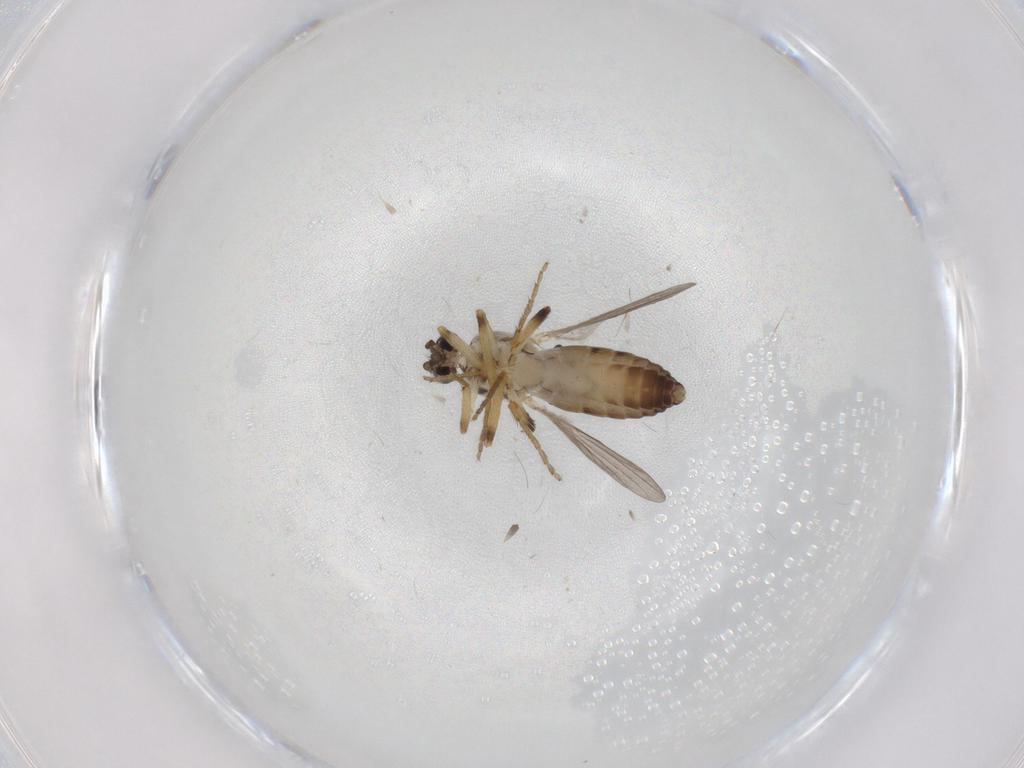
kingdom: Animalia
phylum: Arthropoda
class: Insecta
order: Diptera
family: Ceratopogonidae
